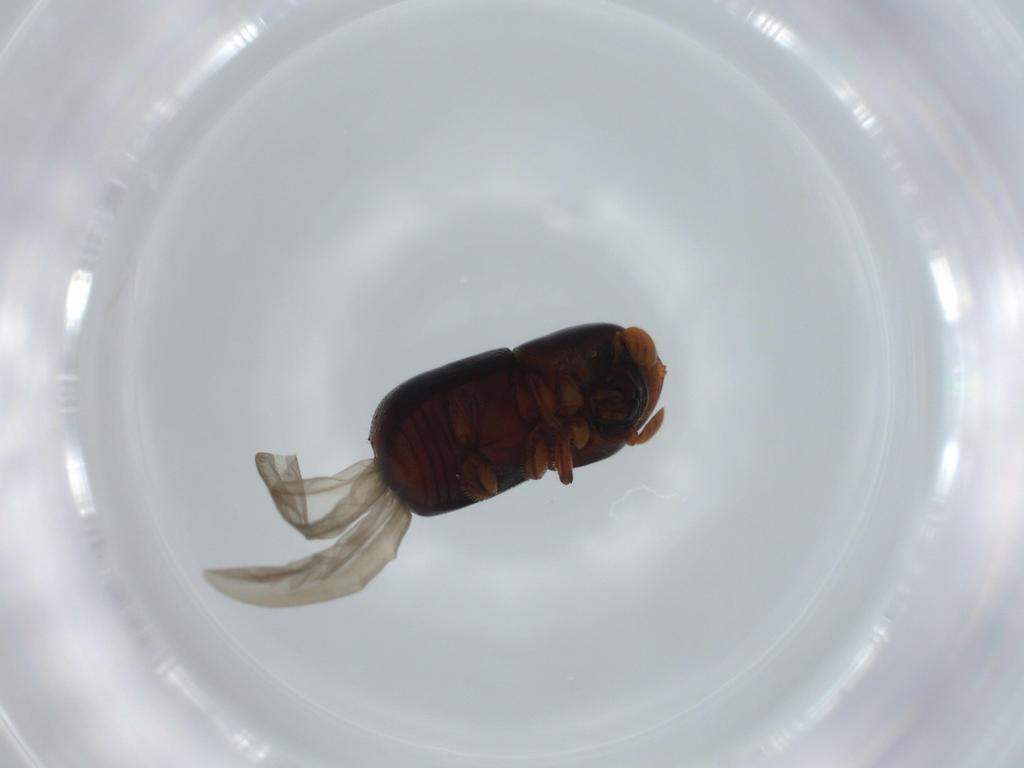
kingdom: Animalia
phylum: Arthropoda
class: Insecta
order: Coleoptera
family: Curculionidae
